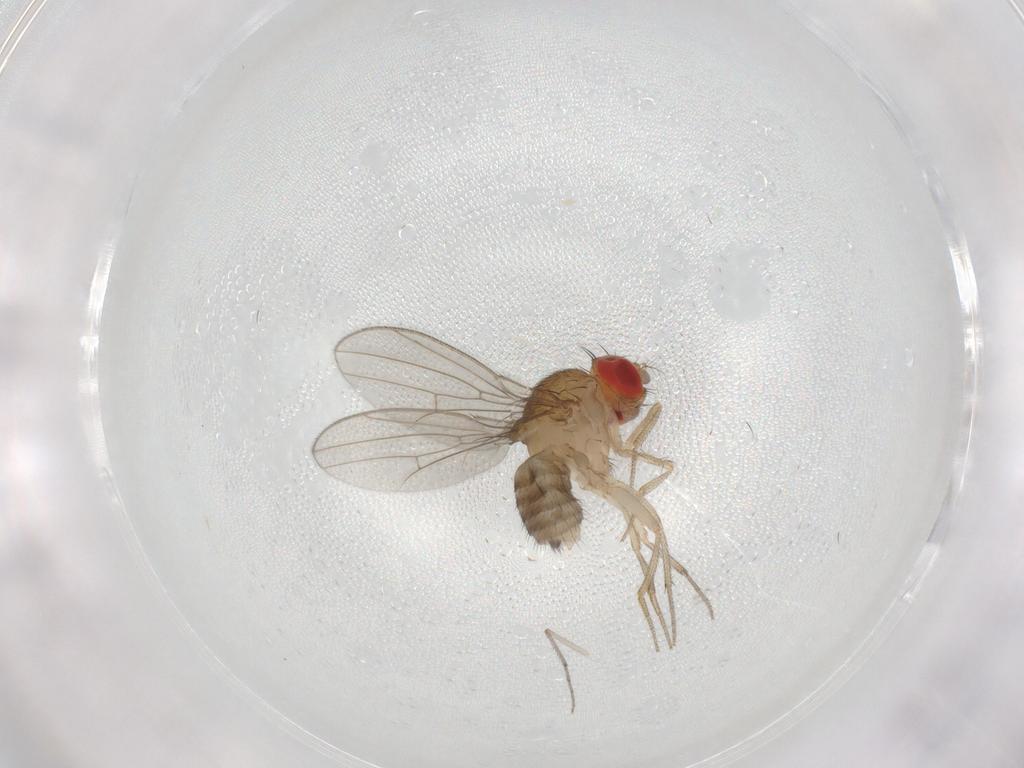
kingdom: Animalia
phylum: Arthropoda
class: Insecta
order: Diptera
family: Drosophilidae
